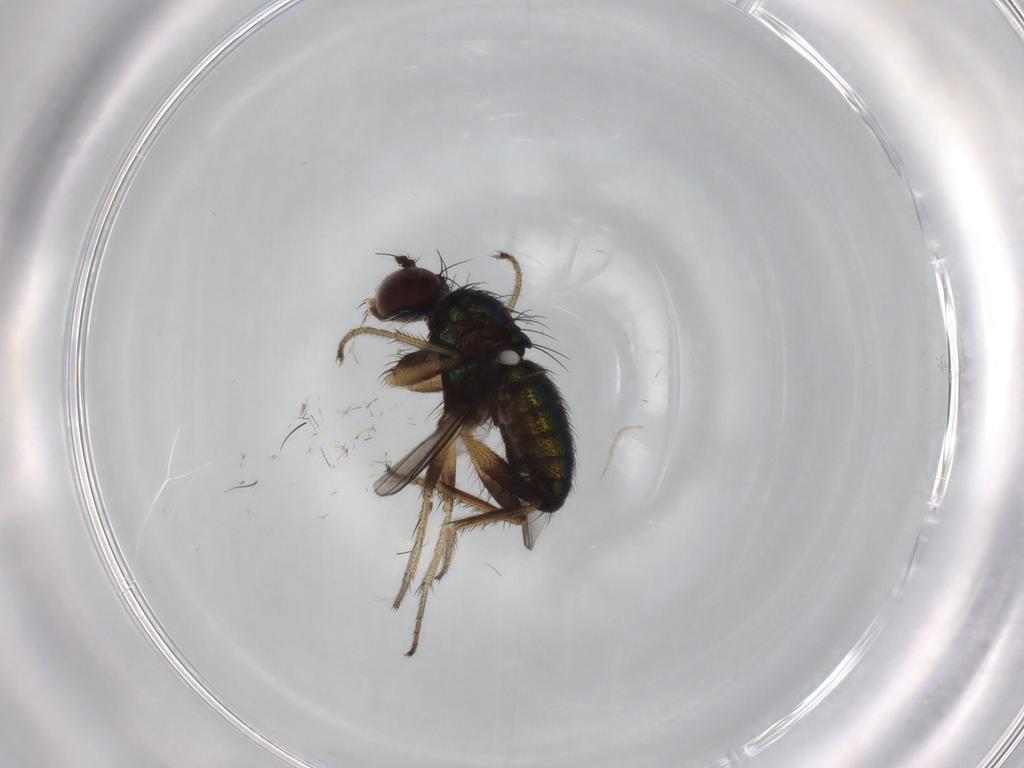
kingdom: Animalia
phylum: Arthropoda
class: Insecta
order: Diptera
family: Dolichopodidae
